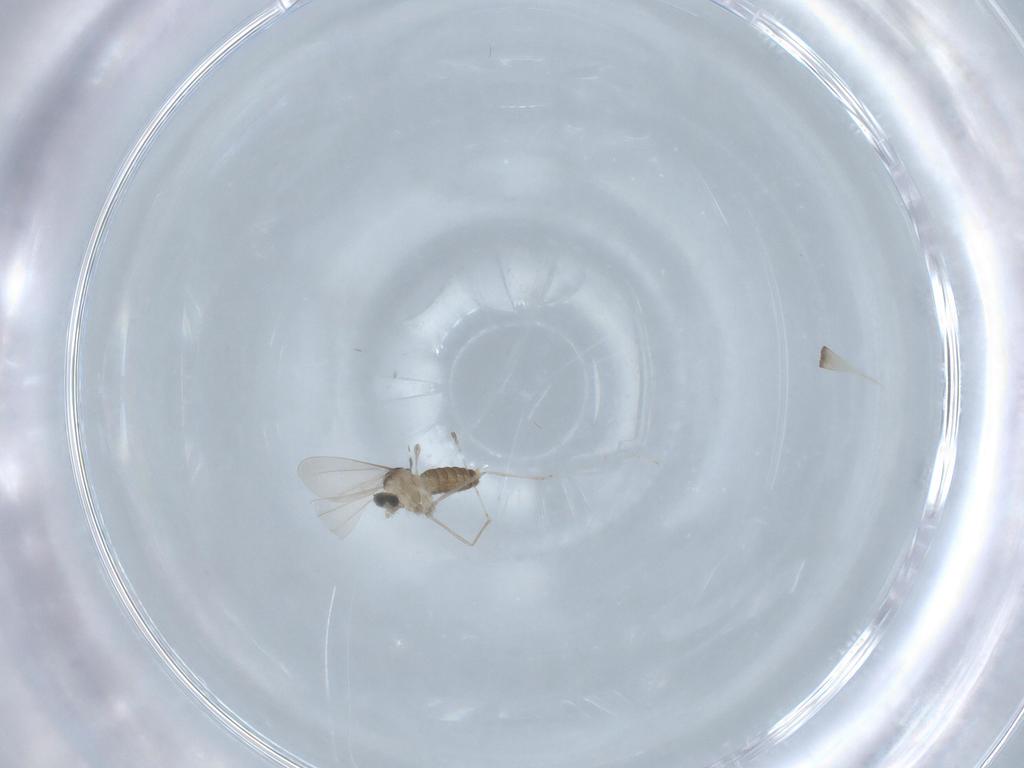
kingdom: Animalia
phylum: Arthropoda
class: Insecta
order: Diptera
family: Cecidomyiidae
